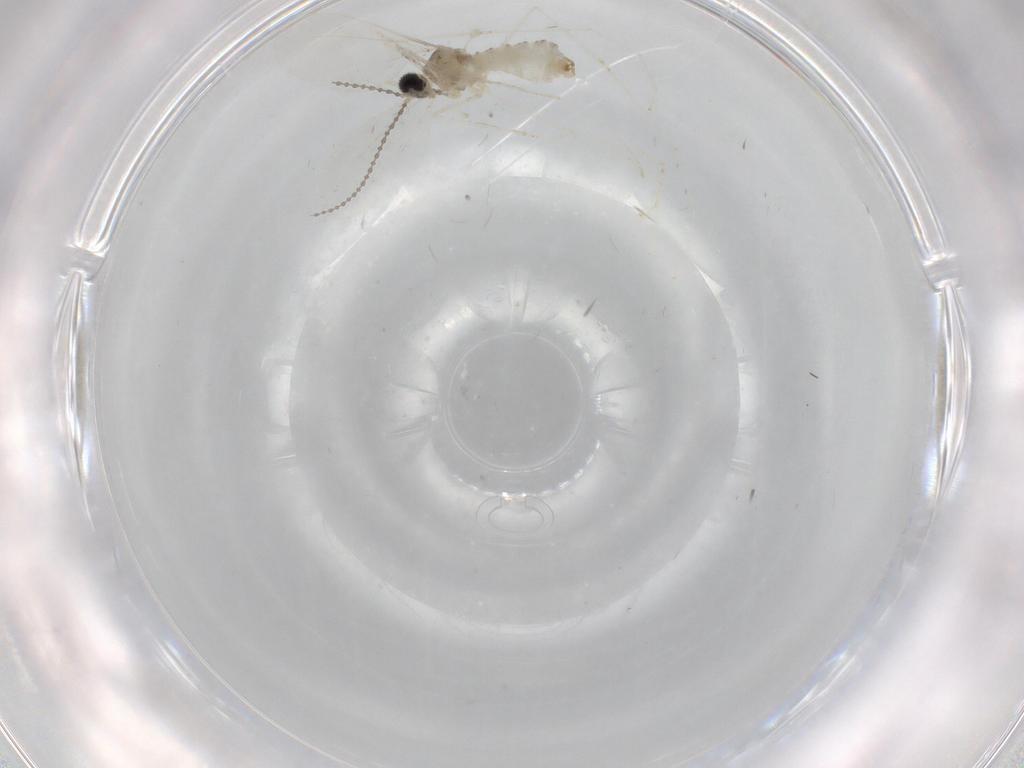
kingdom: Animalia
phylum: Arthropoda
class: Insecta
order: Diptera
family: Cecidomyiidae
